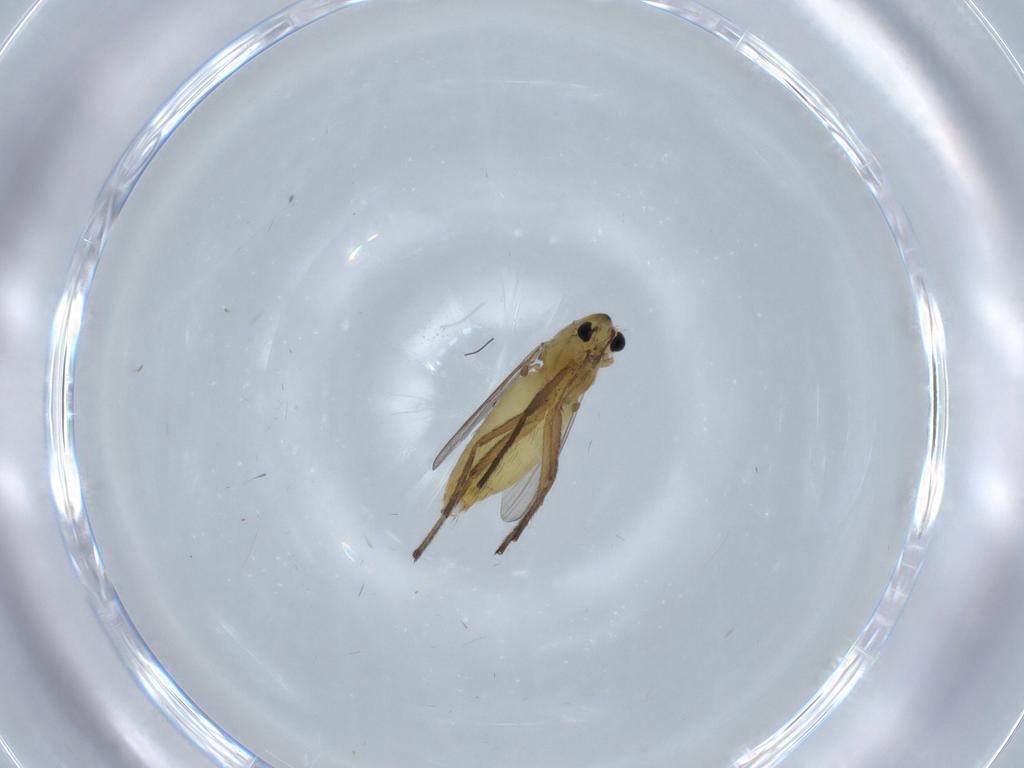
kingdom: Animalia
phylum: Arthropoda
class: Insecta
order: Diptera
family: Chironomidae
